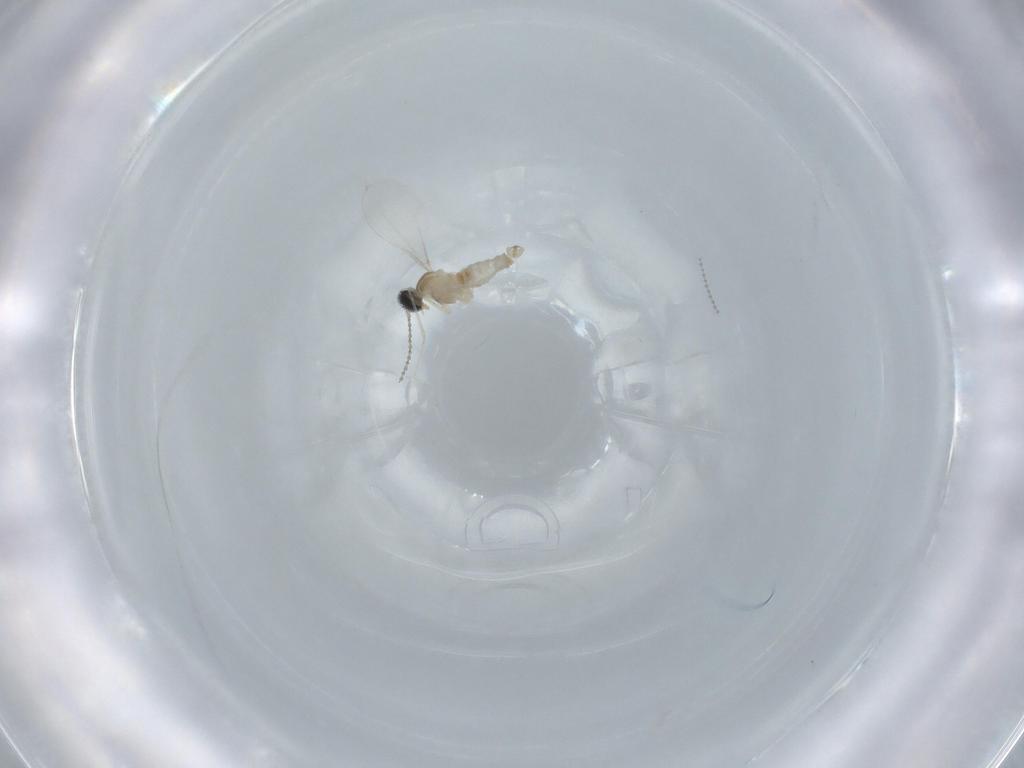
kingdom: Animalia
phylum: Arthropoda
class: Insecta
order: Diptera
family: Cecidomyiidae
